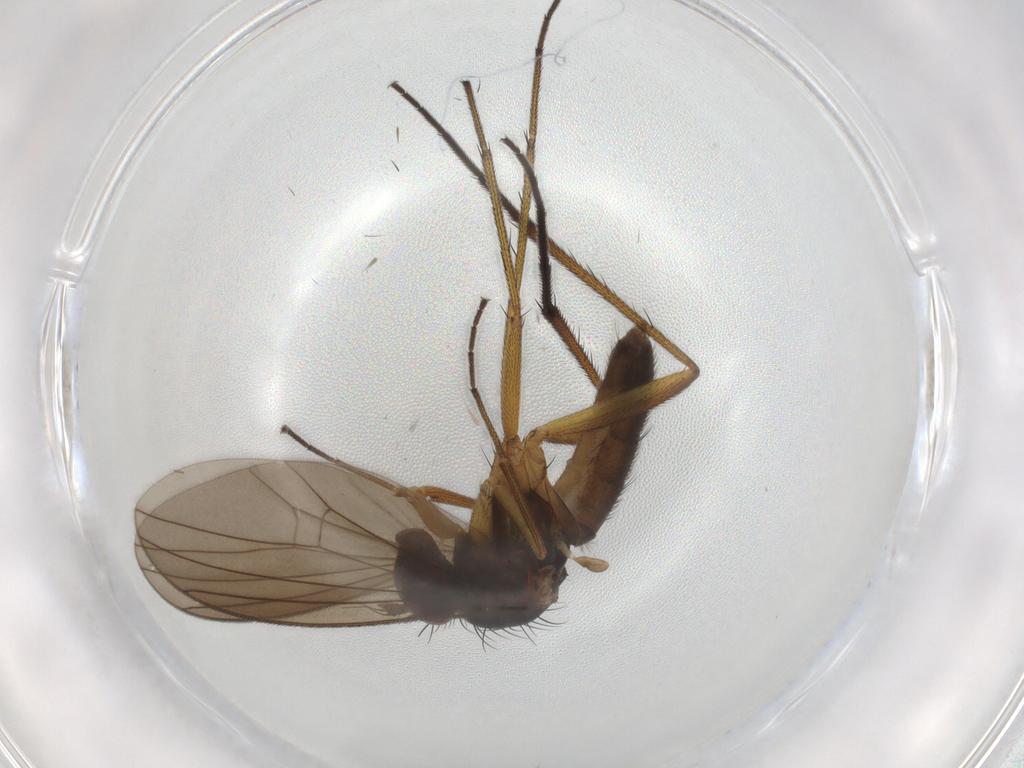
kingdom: Animalia
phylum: Arthropoda
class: Insecta
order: Diptera
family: Dolichopodidae
